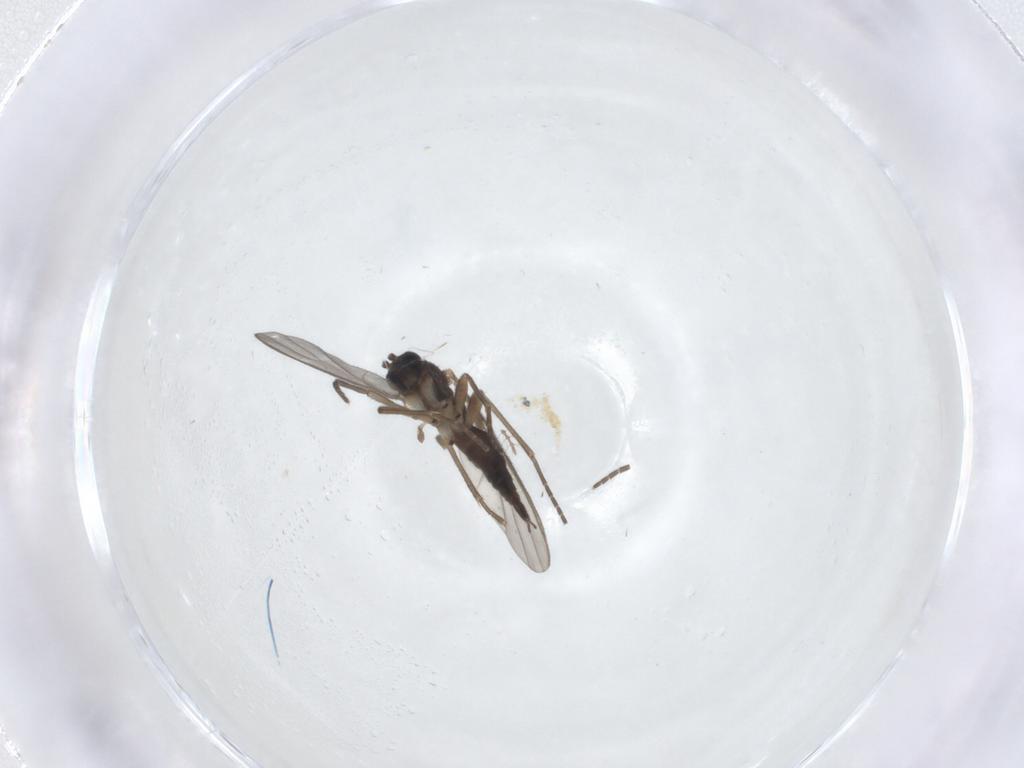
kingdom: Animalia
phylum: Arthropoda
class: Insecta
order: Diptera
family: Sciaridae
